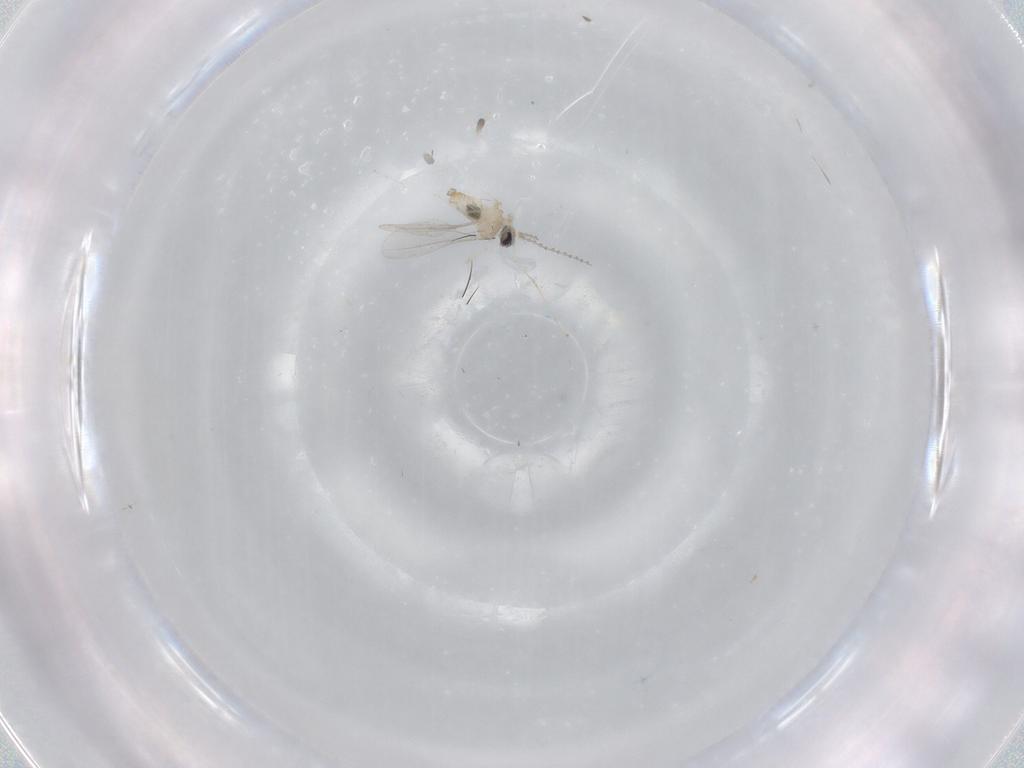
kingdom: Animalia
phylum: Arthropoda
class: Insecta
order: Diptera
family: Cecidomyiidae
